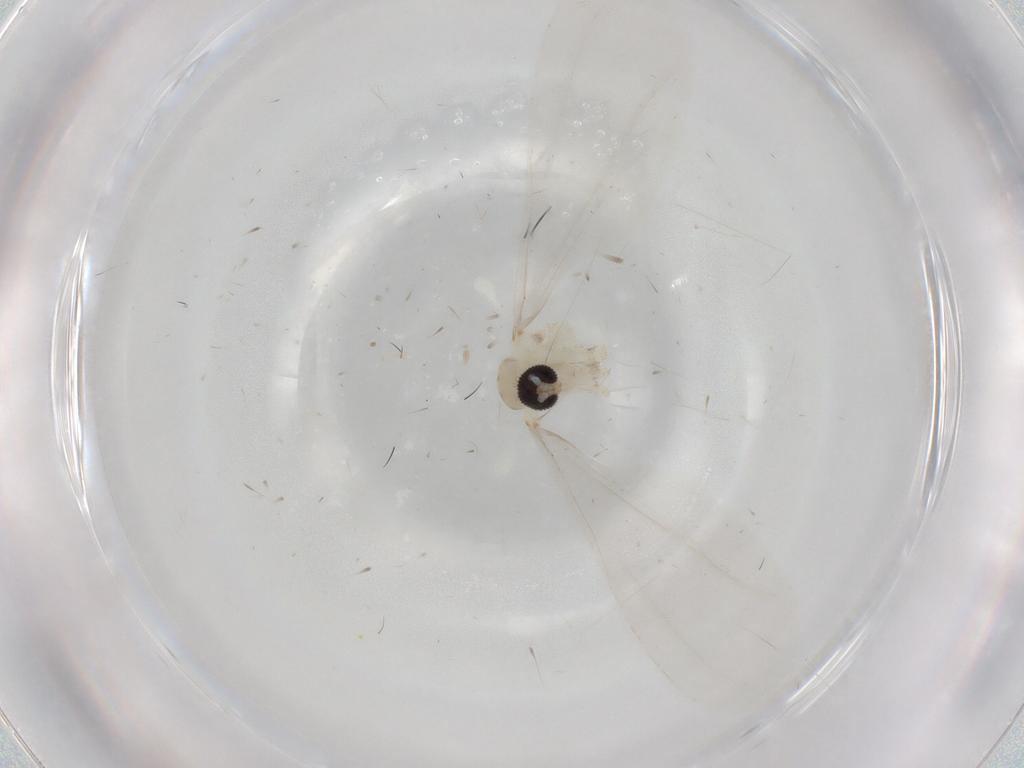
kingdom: Animalia
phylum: Arthropoda
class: Insecta
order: Diptera
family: Cecidomyiidae
